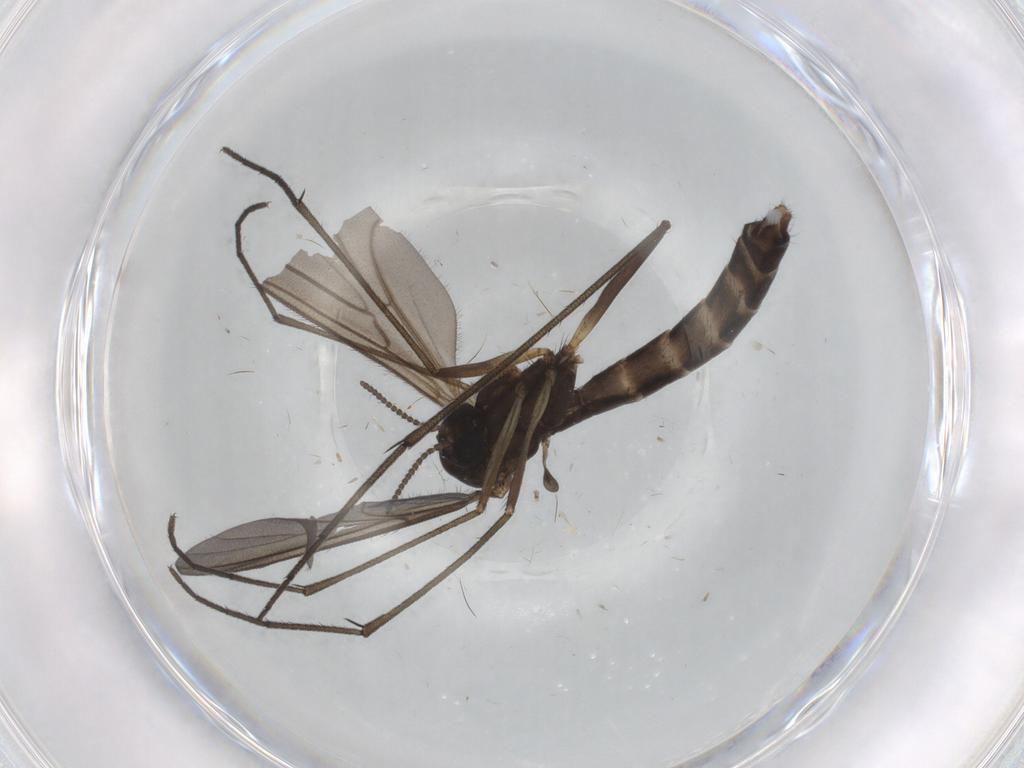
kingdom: Animalia
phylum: Arthropoda
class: Insecta
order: Diptera
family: Ditomyiidae
